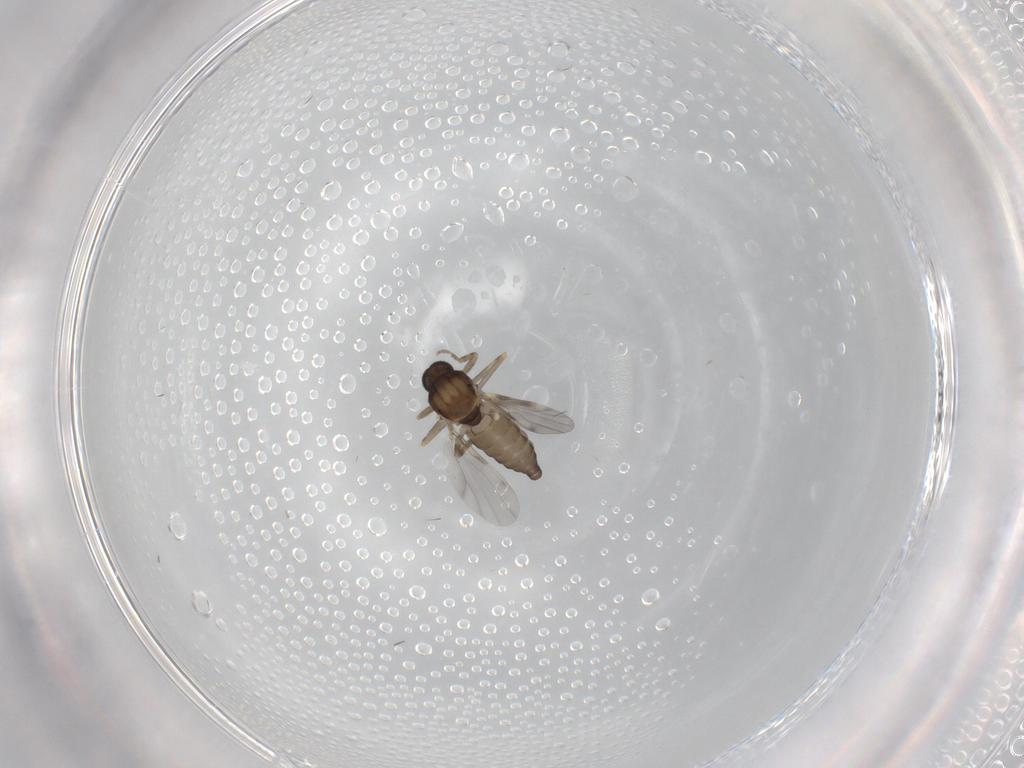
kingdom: Animalia
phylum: Arthropoda
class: Insecta
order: Diptera
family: Ceratopogonidae
